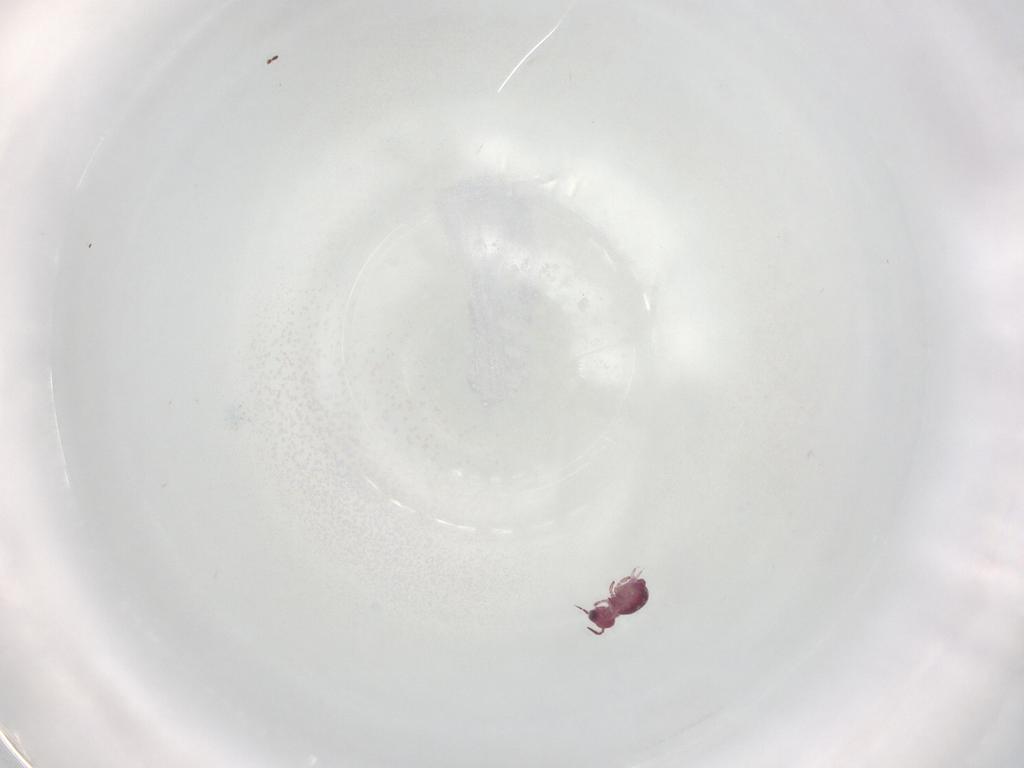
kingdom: Animalia
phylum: Arthropoda
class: Collembola
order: Symphypleona
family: Sminthurididae
